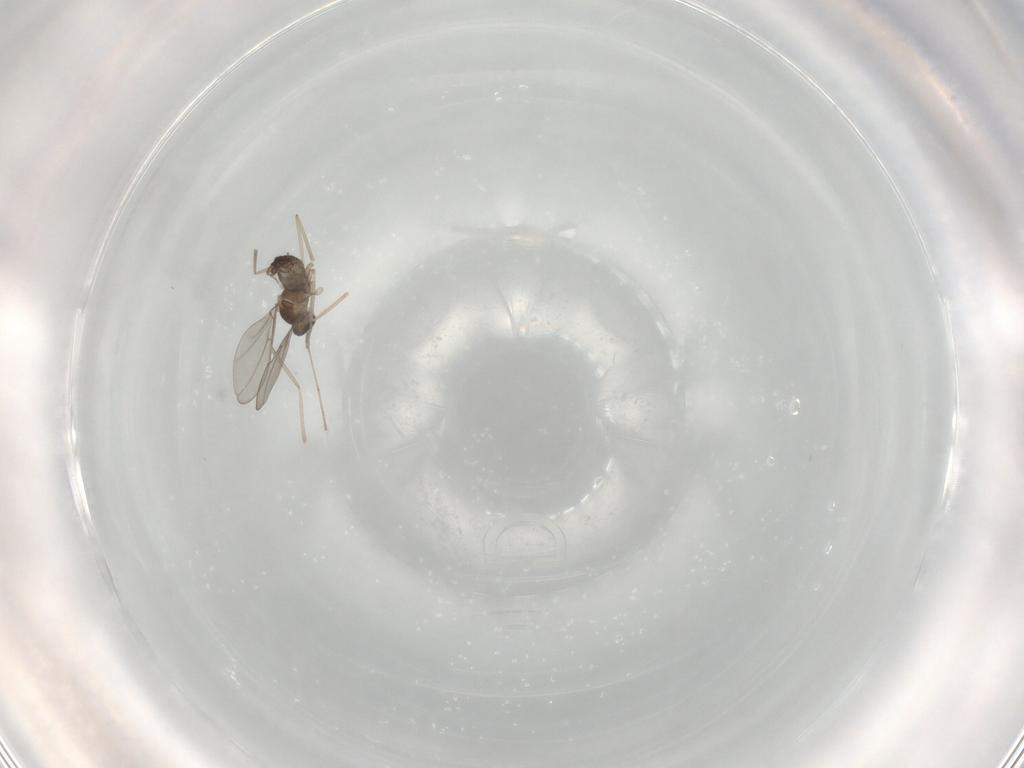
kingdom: Animalia
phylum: Arthropoda
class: Insecta
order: Diptera
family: Cecidomyiidae
